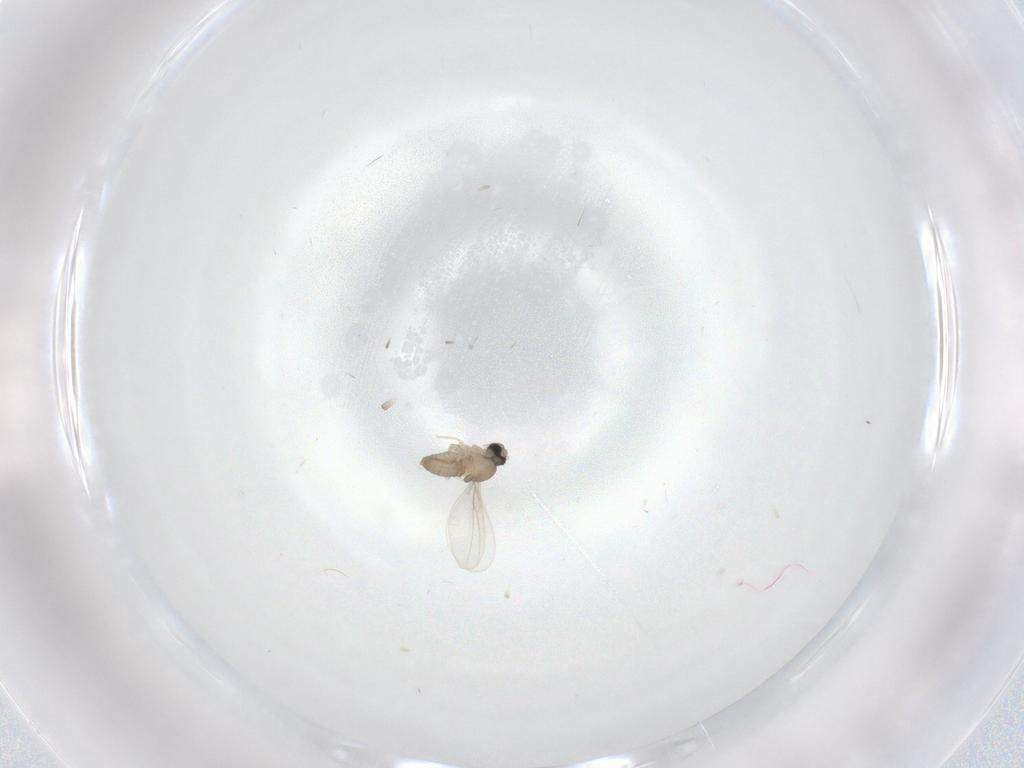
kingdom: Animalia
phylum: Arthropoda
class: Insecta
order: Diptera
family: Cecidomyiidae
